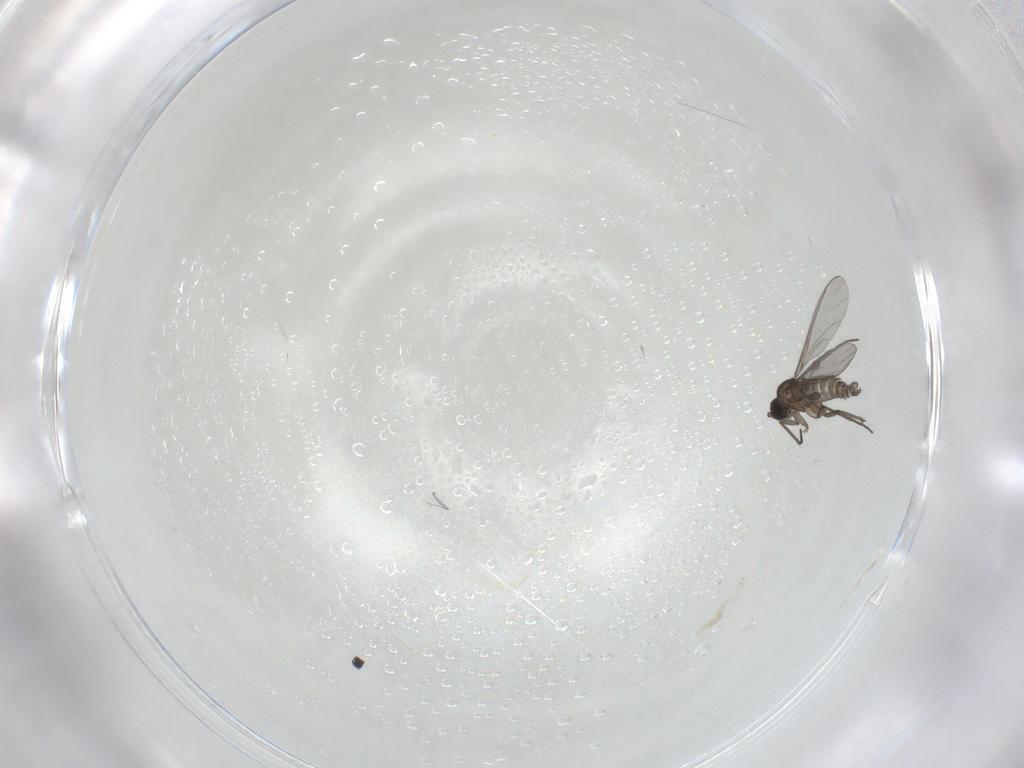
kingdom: Animalia
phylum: Arthropoda
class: Insecta
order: Diptera
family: Sciaridae
